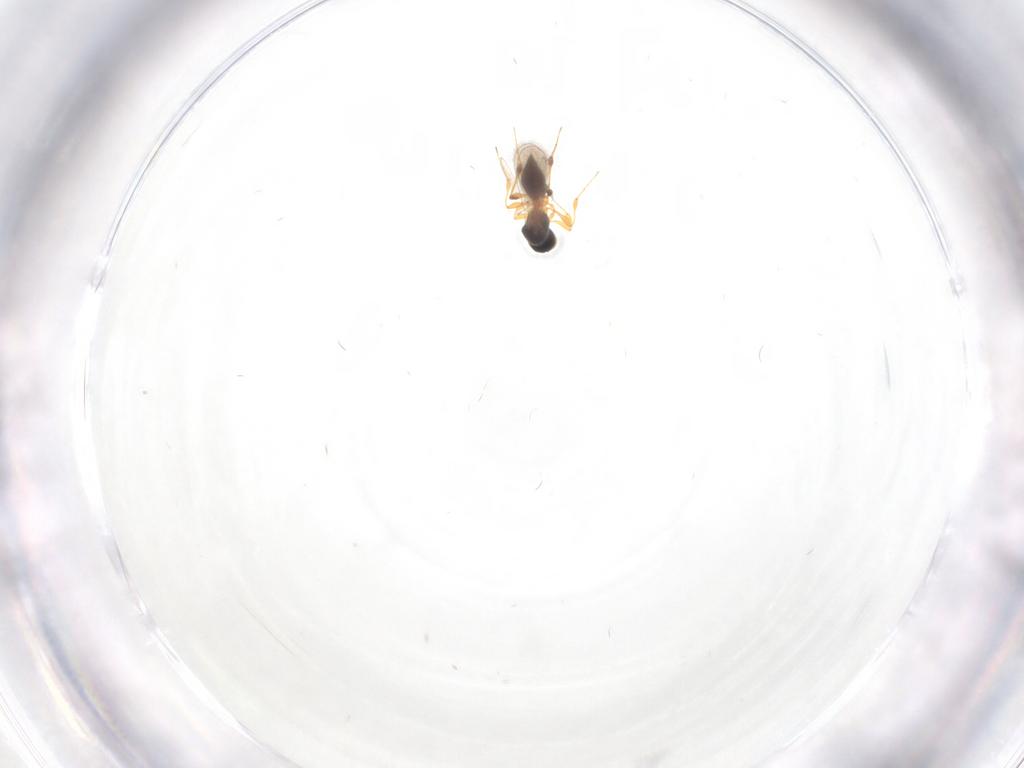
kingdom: Animalia
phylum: Arthropoda
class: Insecta
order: Hymenoptera
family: Platygastridae
